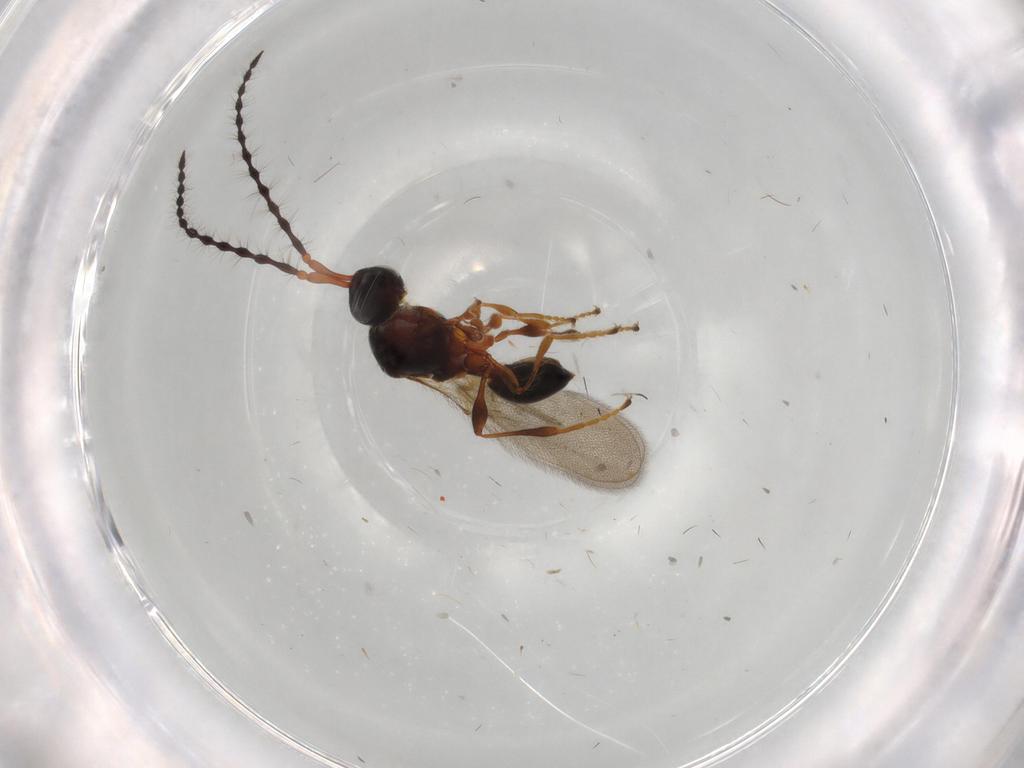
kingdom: Animalia
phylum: Arthropoda
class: Insecta
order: Hymenoptera
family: Diapriidae
